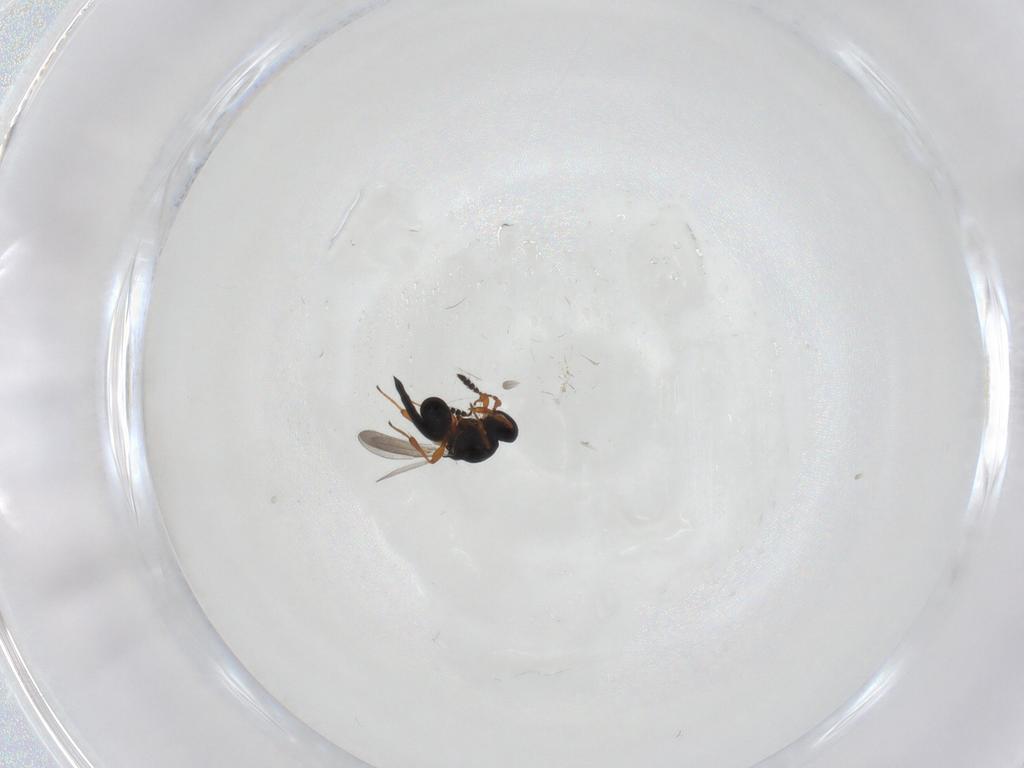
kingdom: Animalia
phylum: Arthropoda
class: Insecta
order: Hymenoptera
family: Platygastridae
